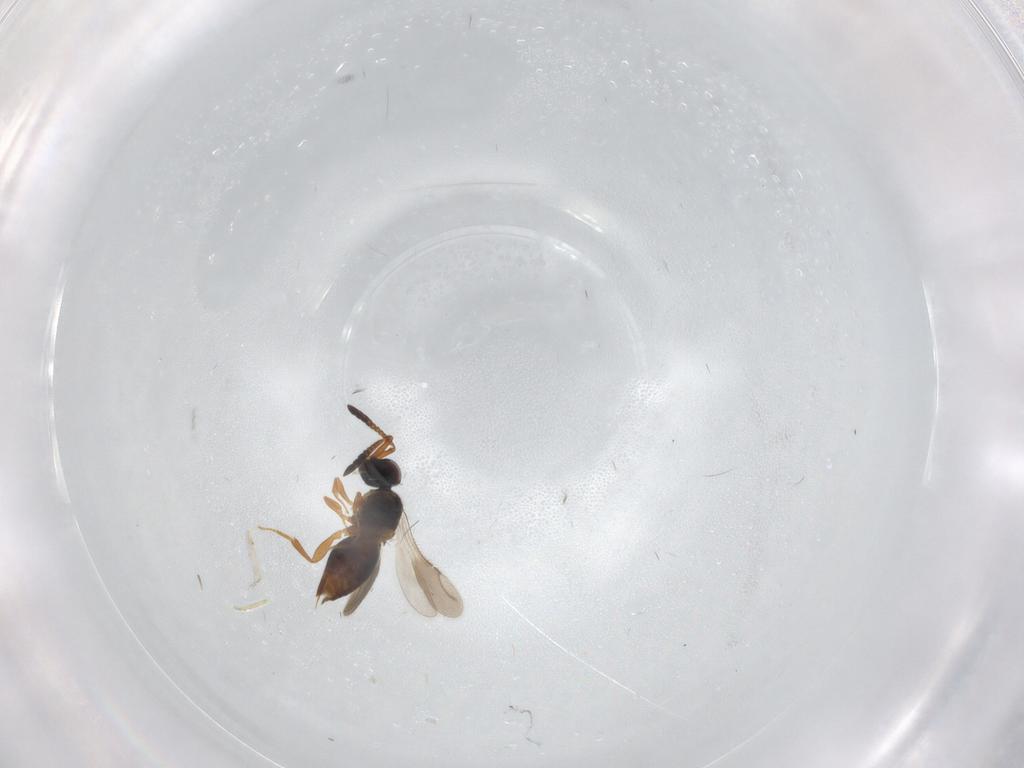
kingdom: Animalia
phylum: Arthropoda
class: Insecta
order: Hymenoptera
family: Ceraphronidae
